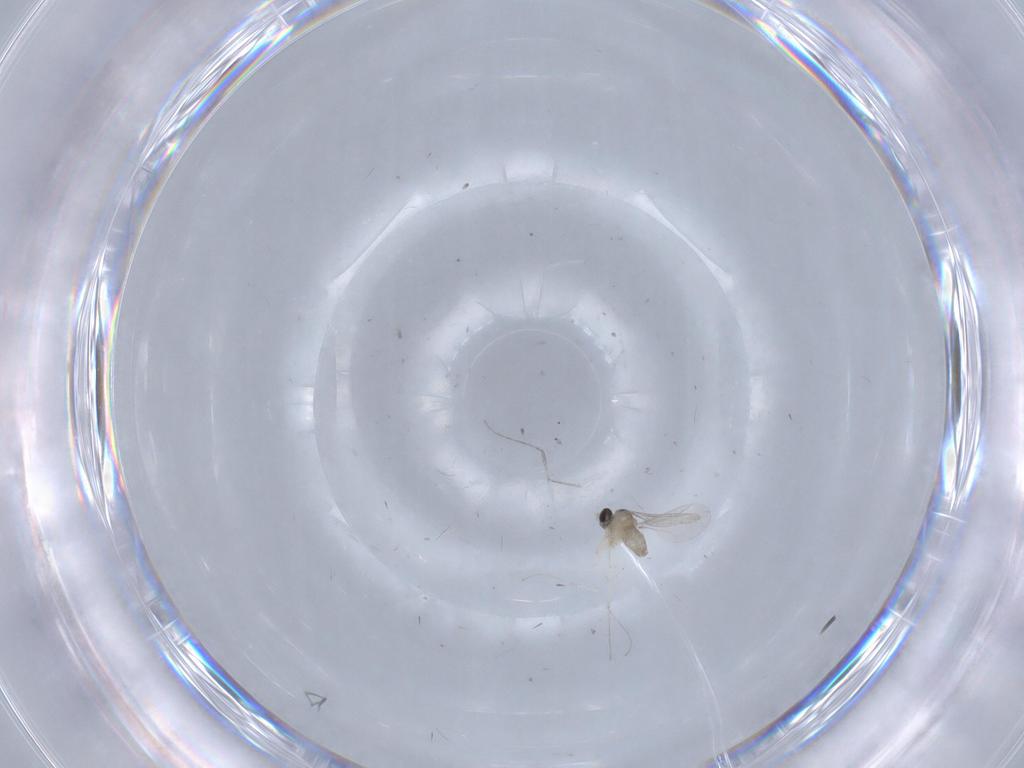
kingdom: Animalia
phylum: Arthropoda
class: Insecta
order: Diptera
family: Cecidomyiidae
